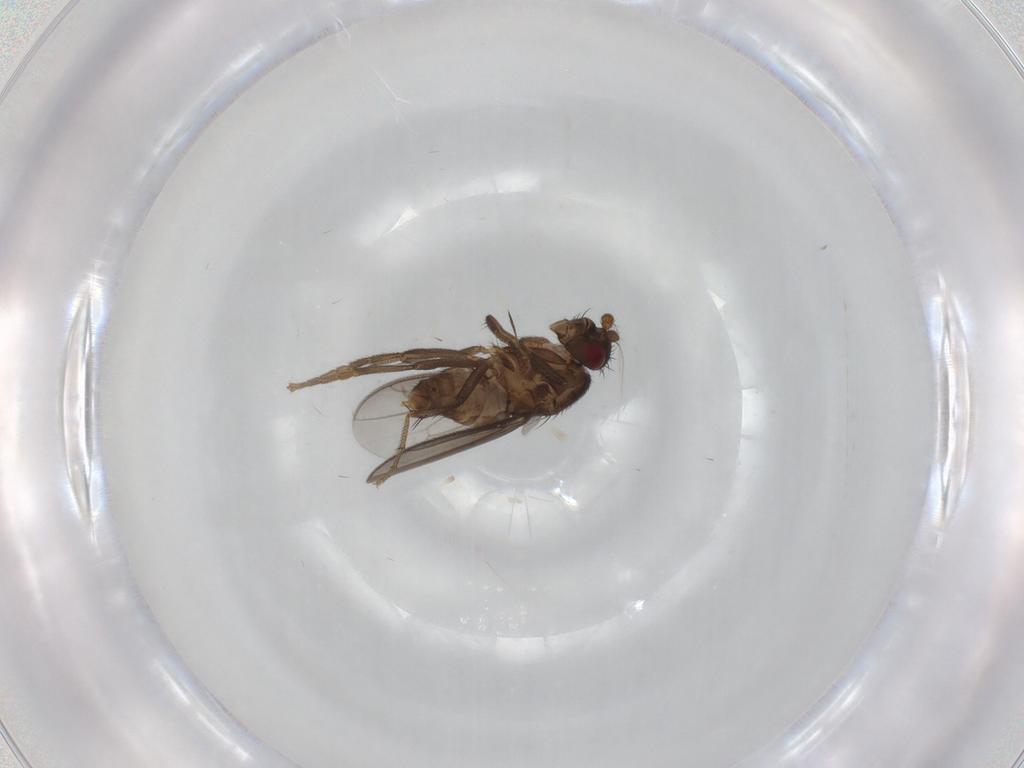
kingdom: Animalia
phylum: Arthropoda
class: Insecta
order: Diptera
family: Sphaeroceridae
